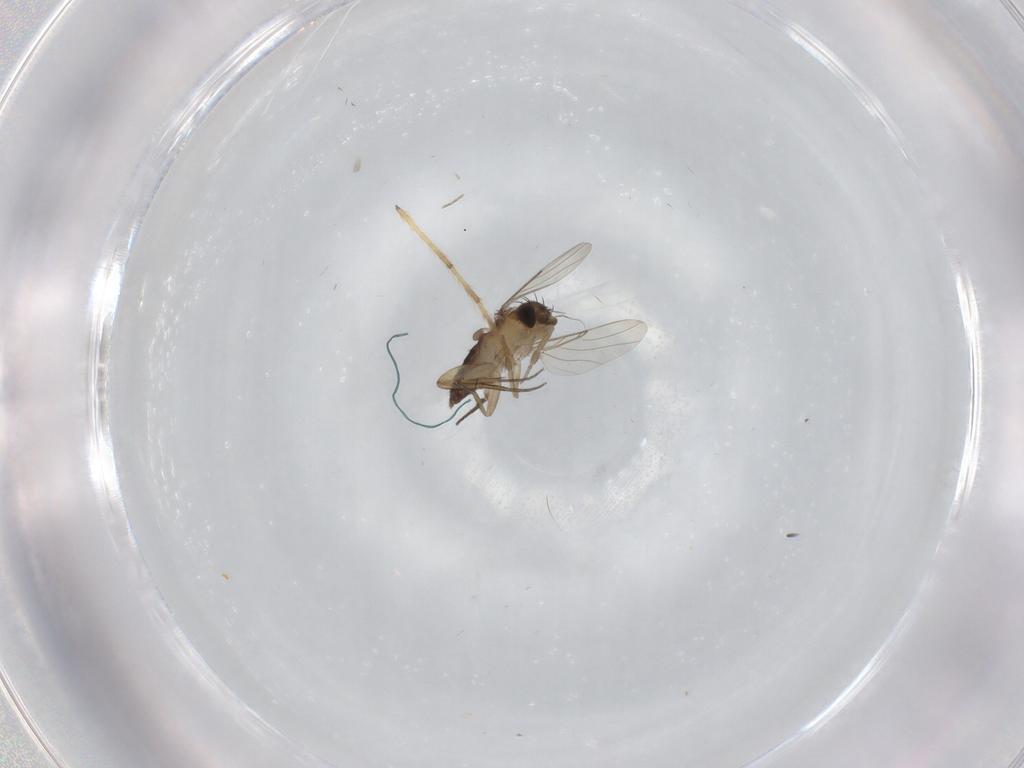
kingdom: Animalia
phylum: Arthropoda
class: Insecta
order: Diptera
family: Chironomidae
